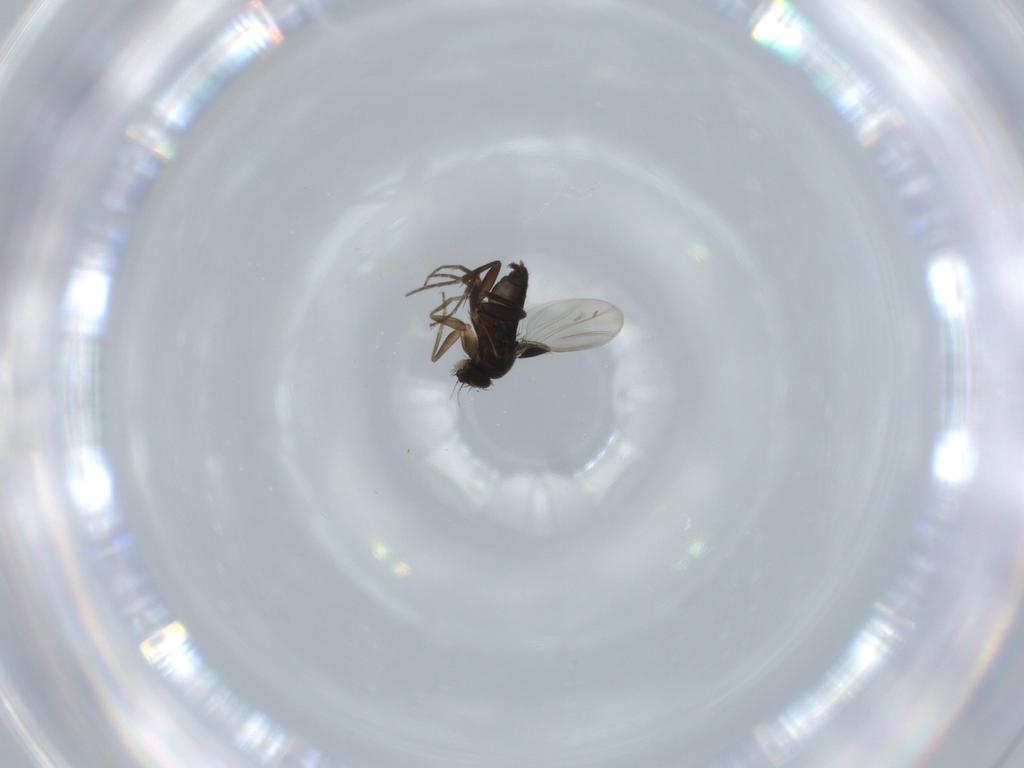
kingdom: Animalia
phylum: Arthropoda
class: Insecta
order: Diptera
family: Phoridae
